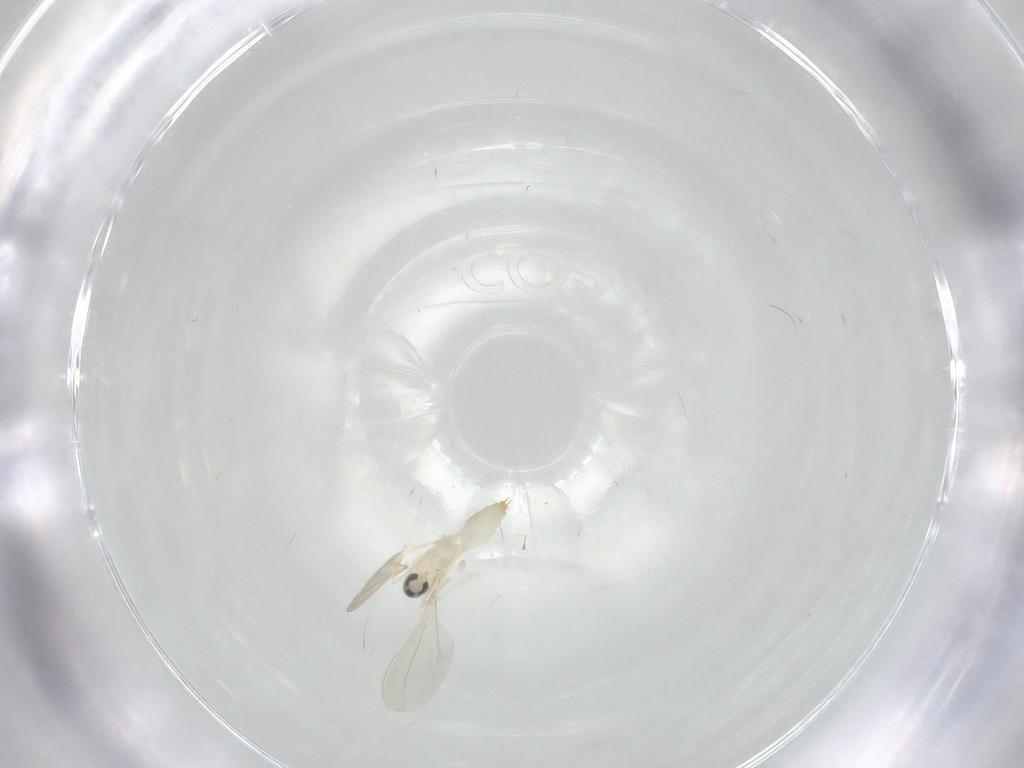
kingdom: Animalia
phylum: Arthropoda
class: Insecta
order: Diptera
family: Cecidomyiidae
